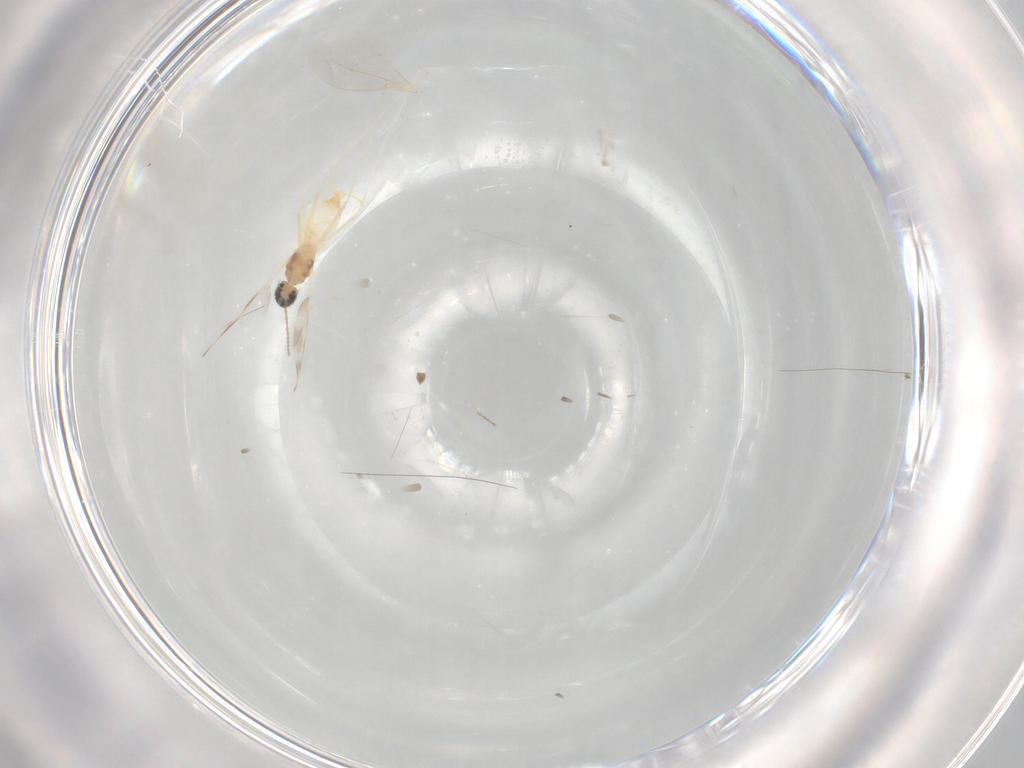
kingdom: Animalia
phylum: Arthropoda
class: Insecta
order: Diptera
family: Cecidomyiidae
